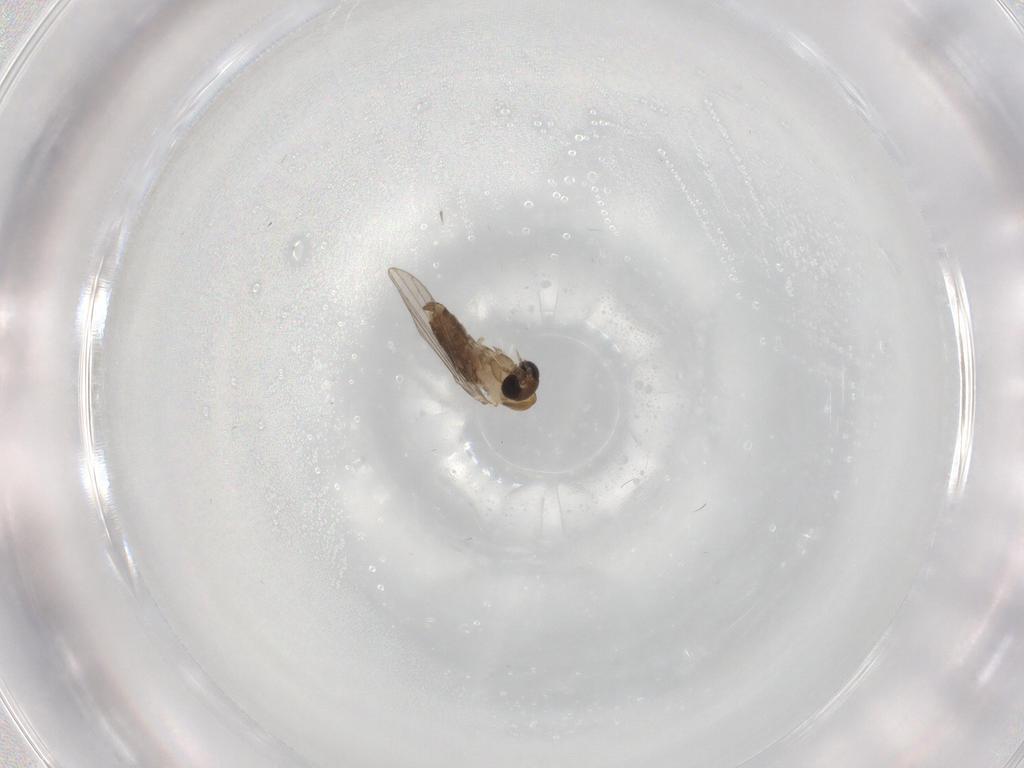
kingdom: Animalia
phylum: Arthropoda
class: Insecta
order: Diptera
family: Psychodidae
